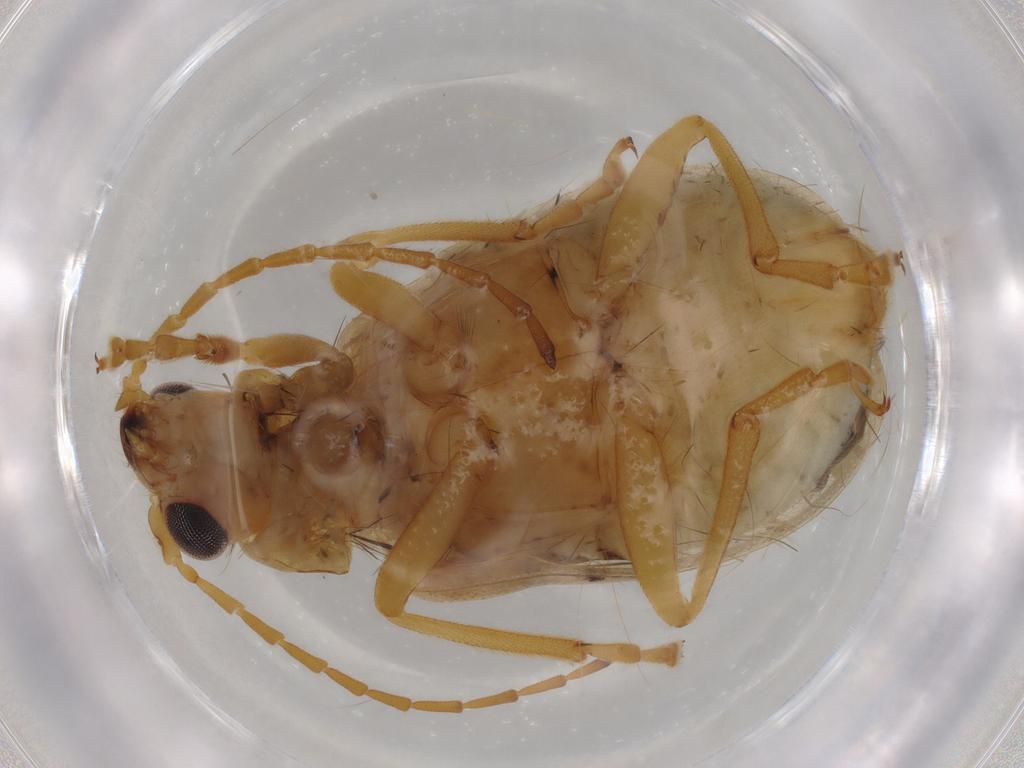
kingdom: Animalia
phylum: Arthropoda
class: Insecta
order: Coleoptera
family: Chrysomelidae
